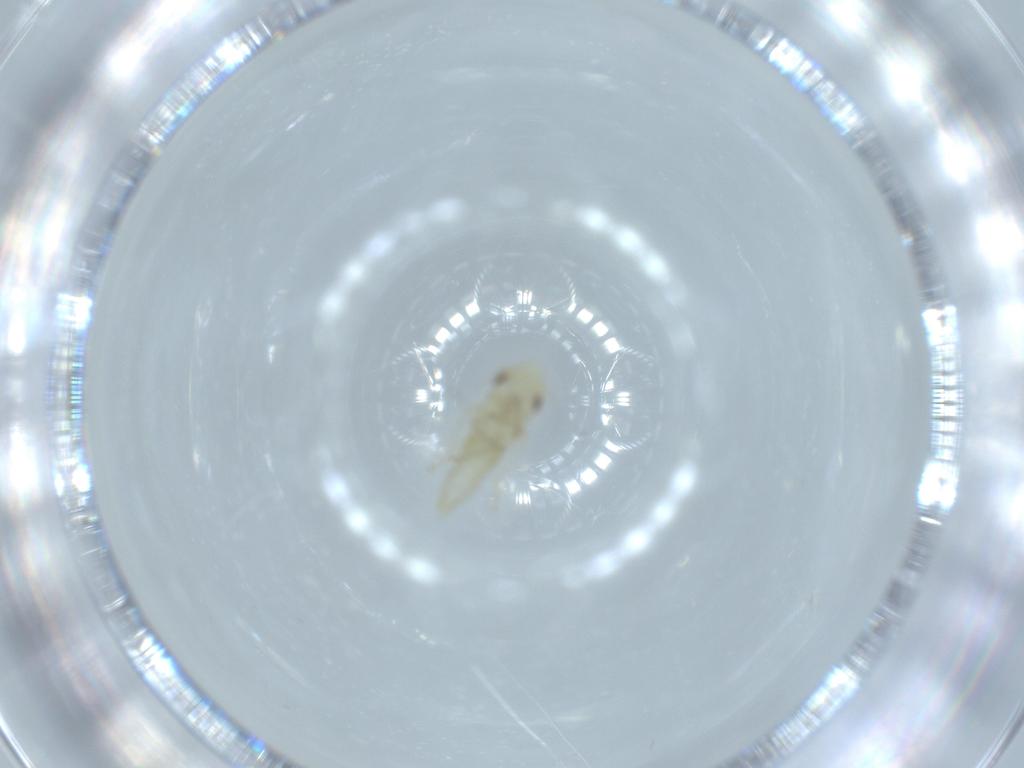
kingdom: Animalia
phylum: Arthropoda
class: Insecta
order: Hemiptera
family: Cicadellidae
